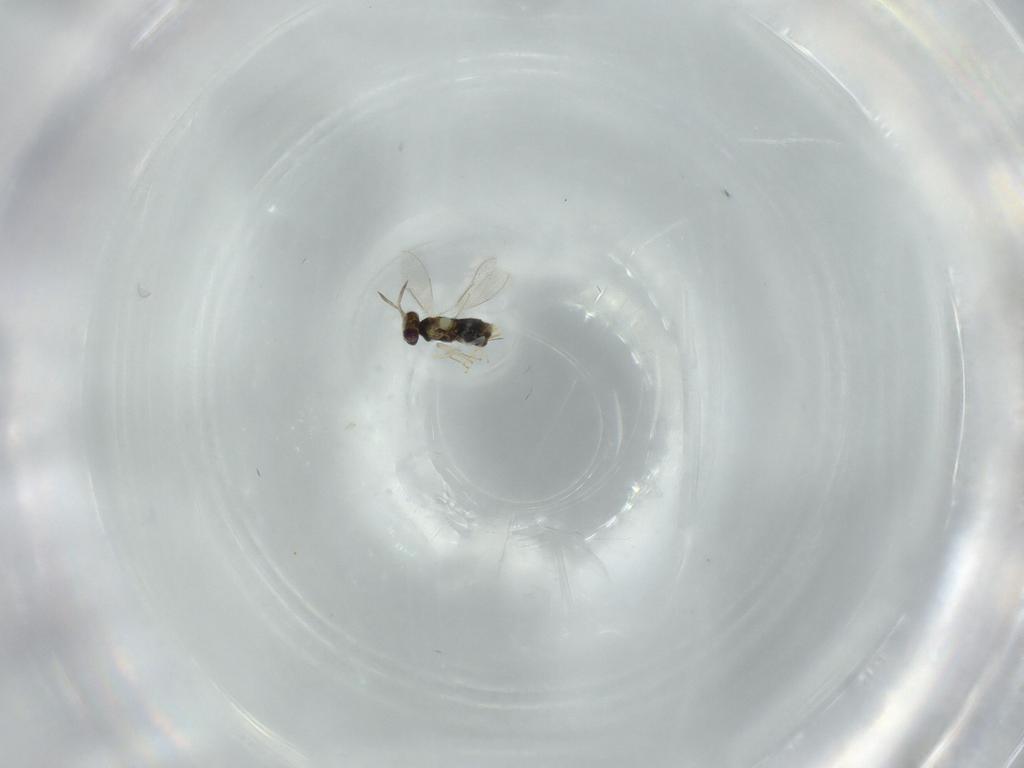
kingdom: Animalia
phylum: Arthropoda
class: Insecta
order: Hymenoptera
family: Aphelinidae
